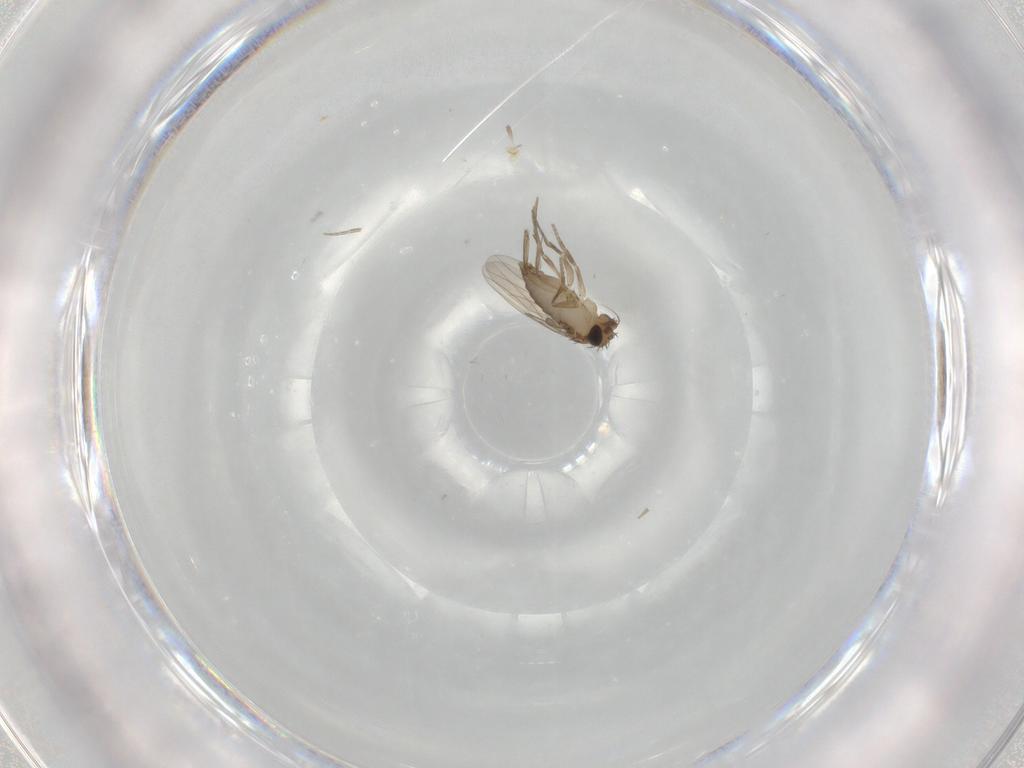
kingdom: Animalia
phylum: Arthropoda
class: Insecta
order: Diptera
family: Phoridae
